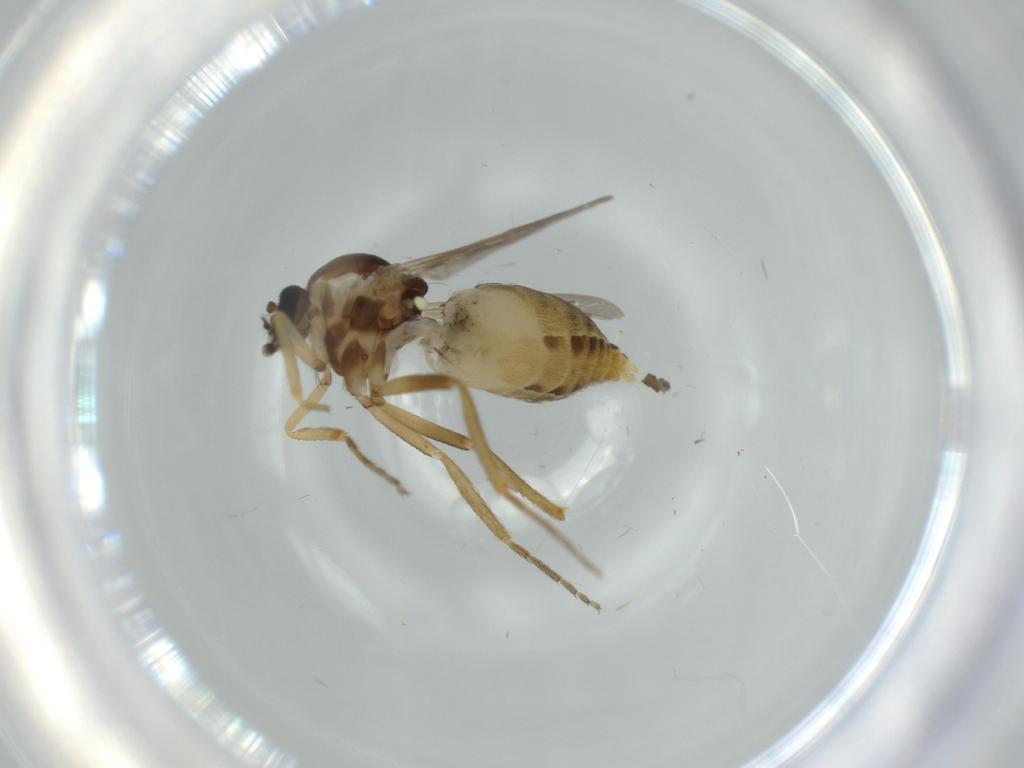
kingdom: Animalia
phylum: Arthropoda
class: Insecta
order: Diptera
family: Ceratopogonidae
